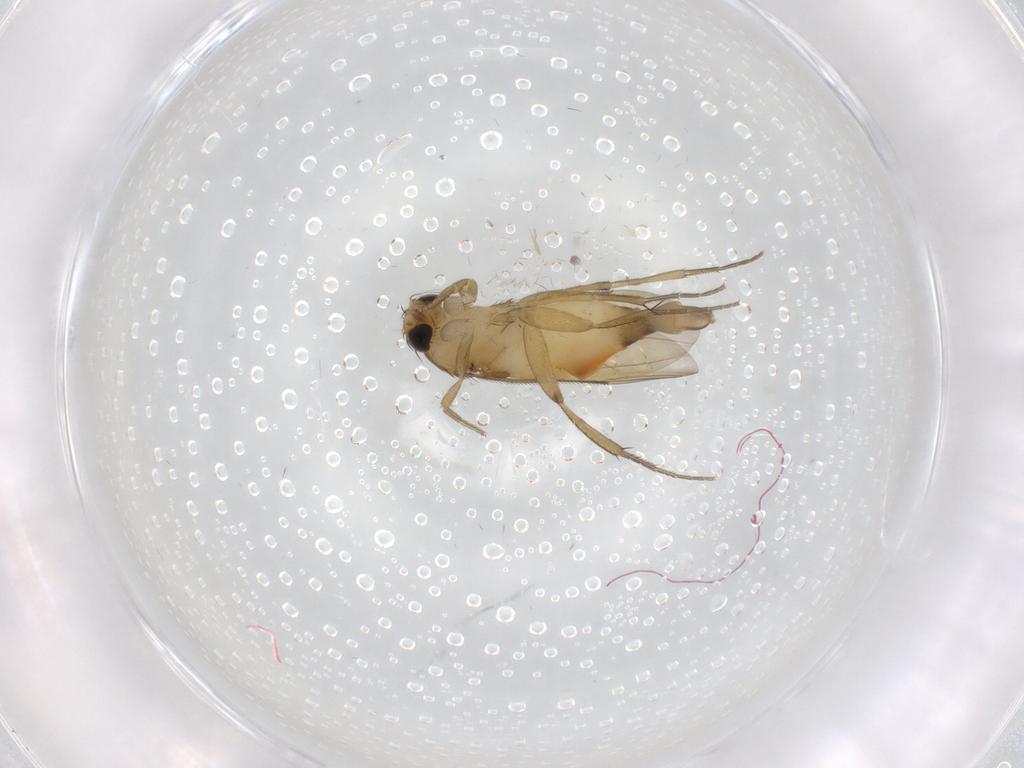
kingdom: Animalia
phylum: Arthropoda
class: Insecta
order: Diptera
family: Phoridae
